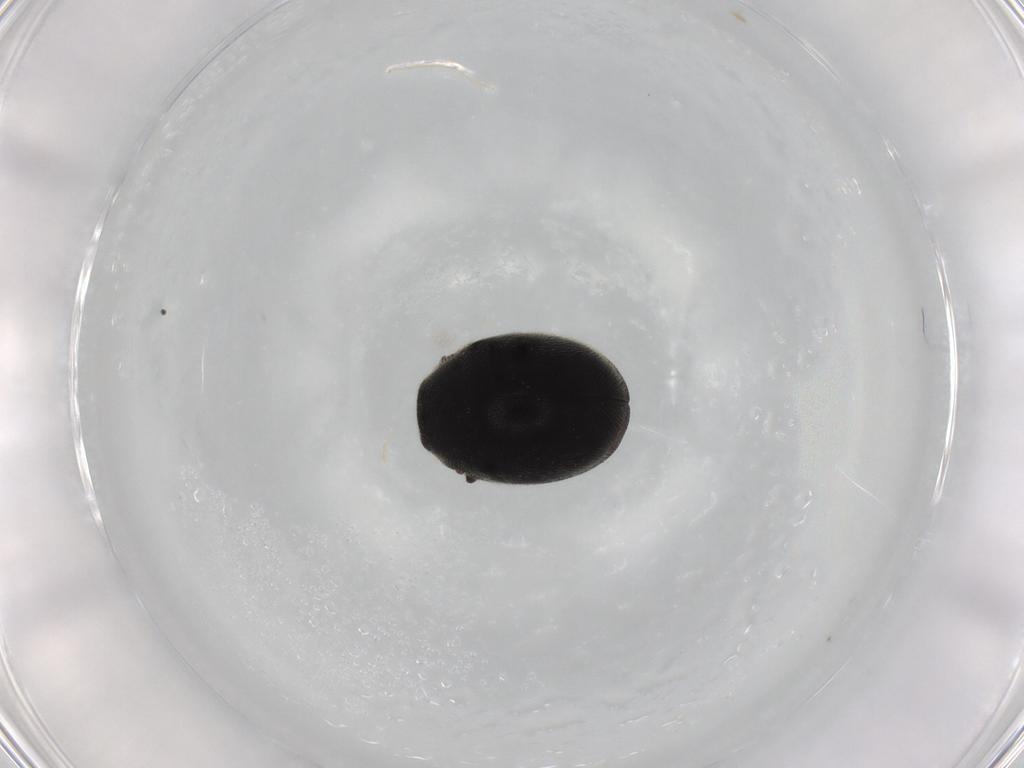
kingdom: Animalia
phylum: Arthropoda
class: Insecta
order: Coleoptera
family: Coccinellidae
